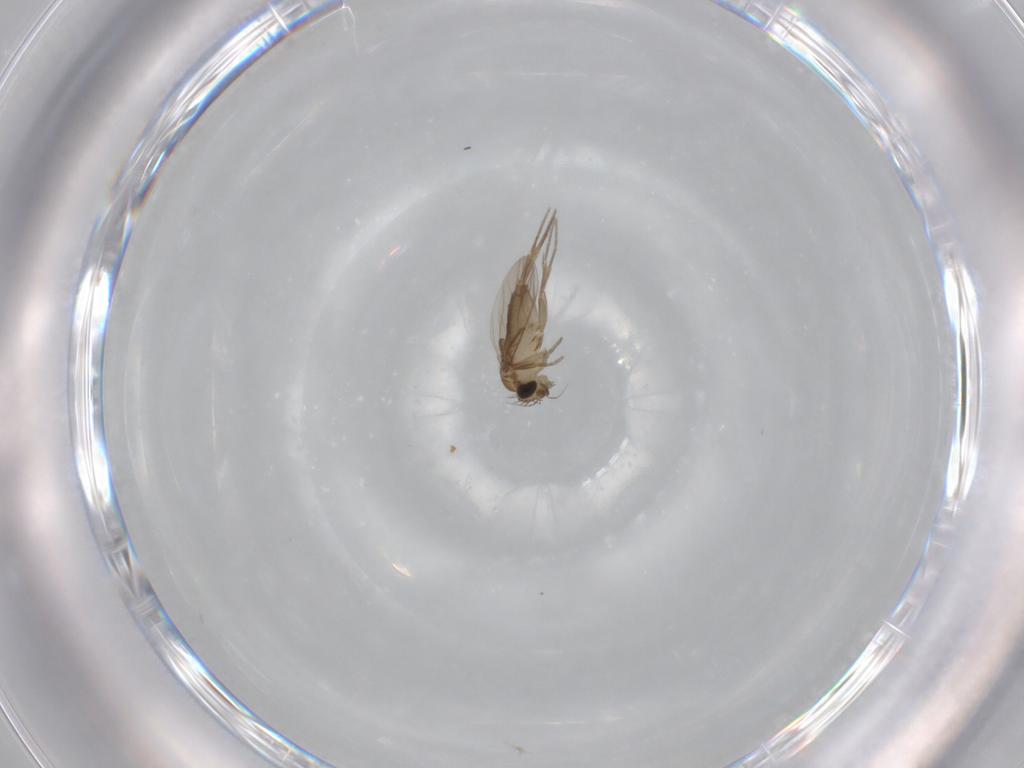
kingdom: Animalia
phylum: Arthropoda
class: Insecta
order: Diptera
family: Phoridae
